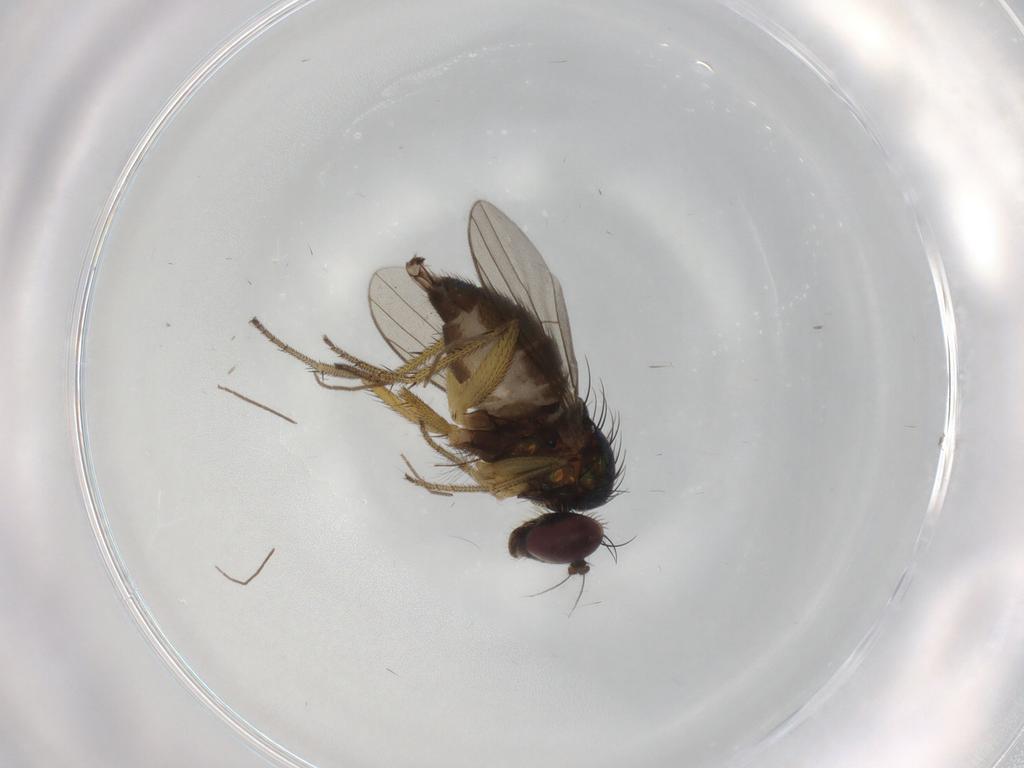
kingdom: Animalia
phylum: Arthropoda
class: Insecta
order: Diptera
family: Dolichopodidae
